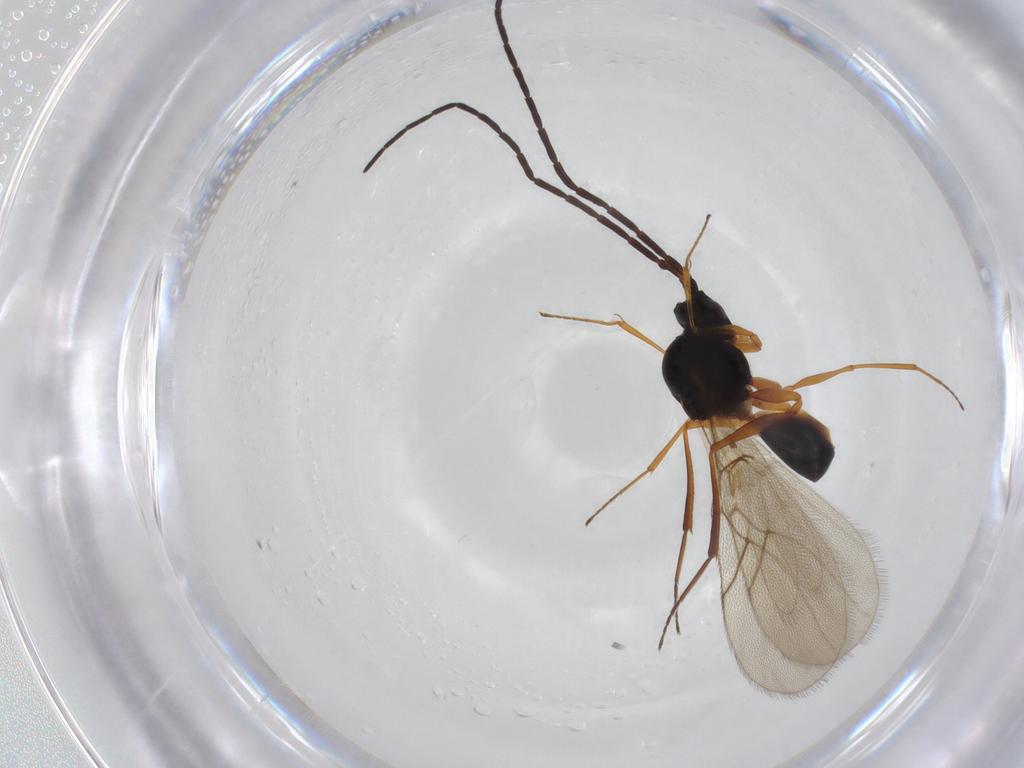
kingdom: Animalia
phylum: Arthropoda
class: Insecta
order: Hymenoptera
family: Figitidae
